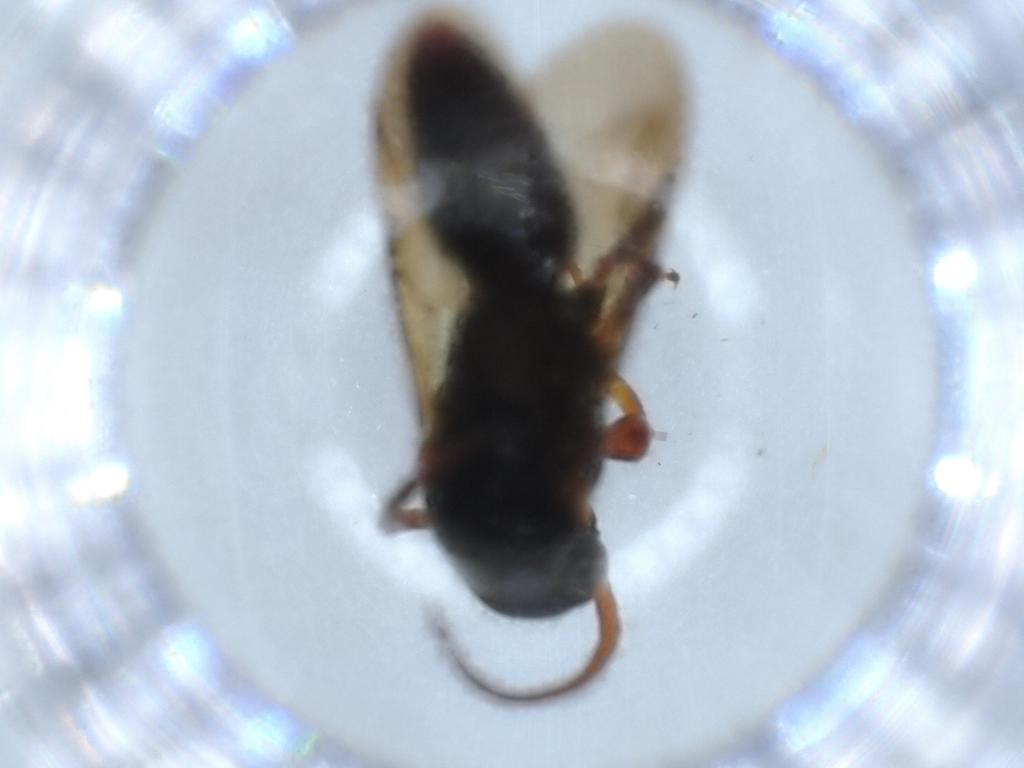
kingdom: Animalia
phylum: Arthropoda
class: Insecta
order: Hymenoptera
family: Bethylidae
